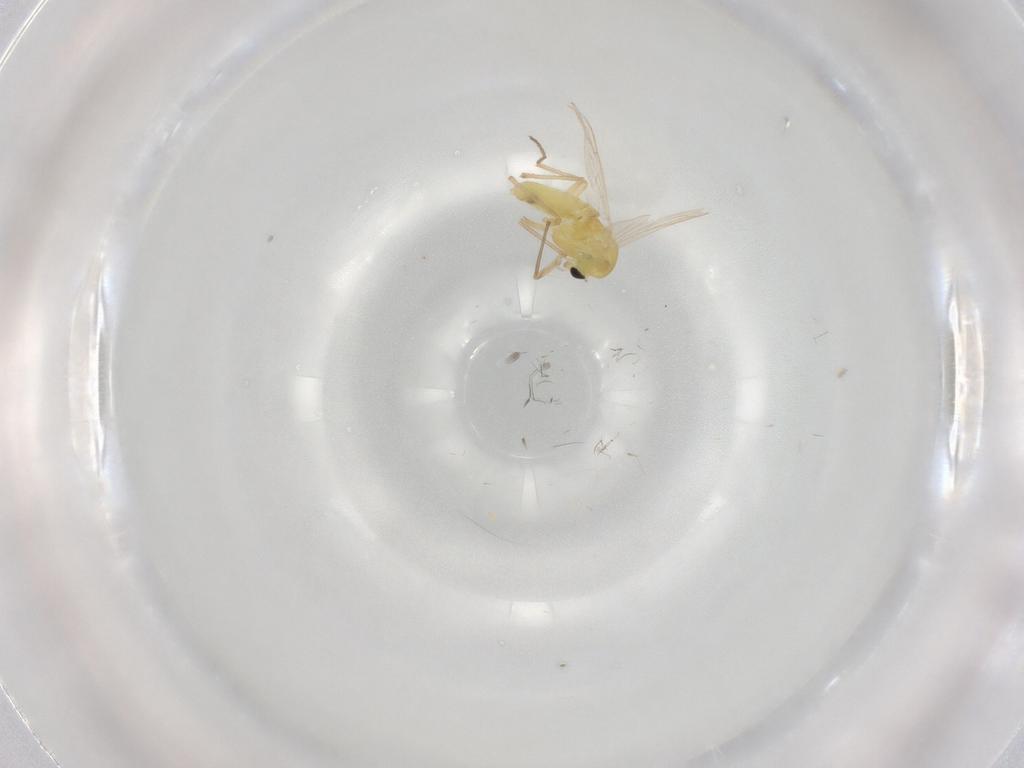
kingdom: Animalia
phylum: Arthropoda
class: Insecta
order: Diptera
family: Chironomidae
